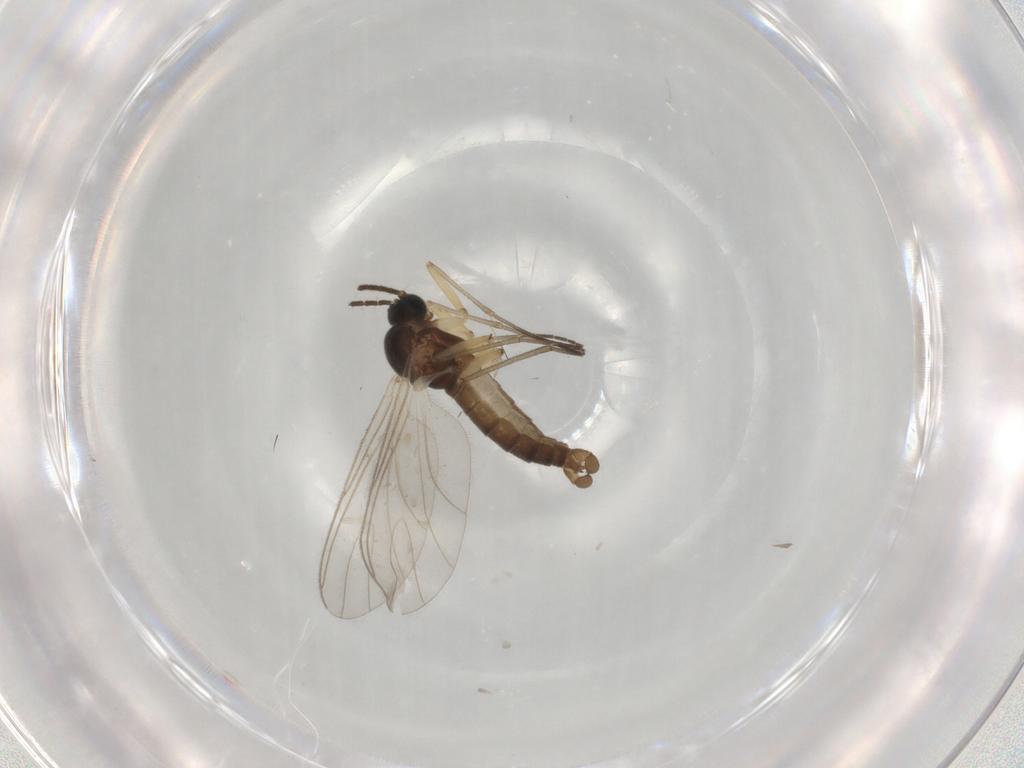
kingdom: Animalia
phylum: Arthropoda
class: Insecta
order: Diptera
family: Sciaridae
